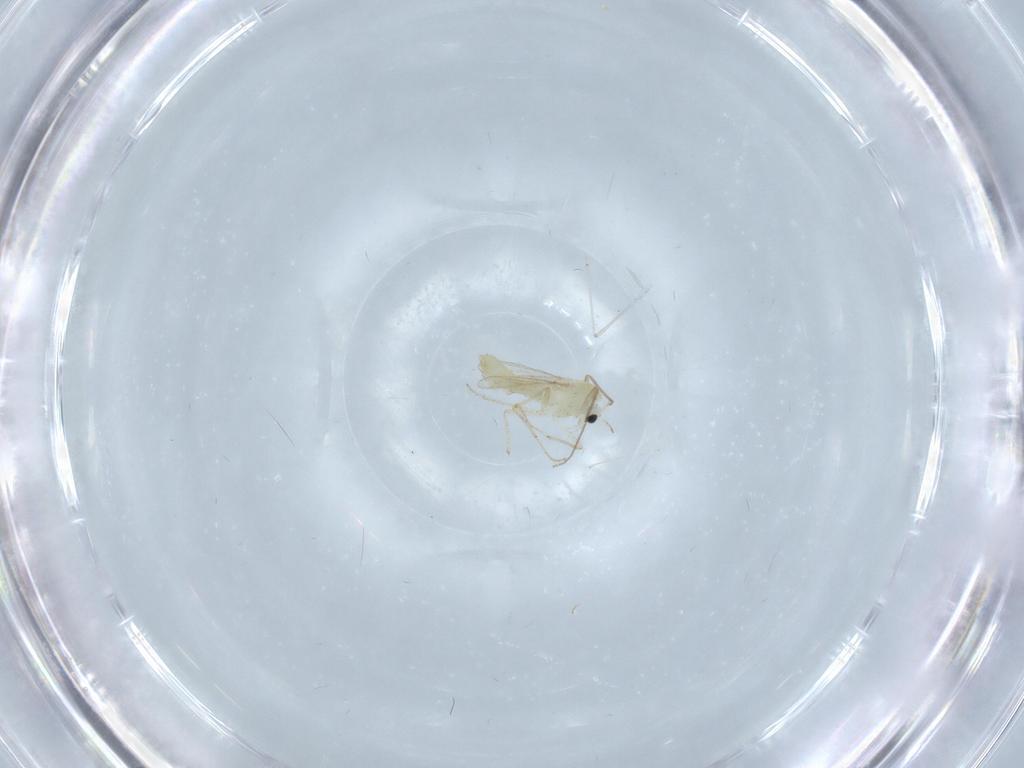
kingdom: Animalia
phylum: Arthropoda
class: Insecta
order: Diptera
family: Chironomidae
